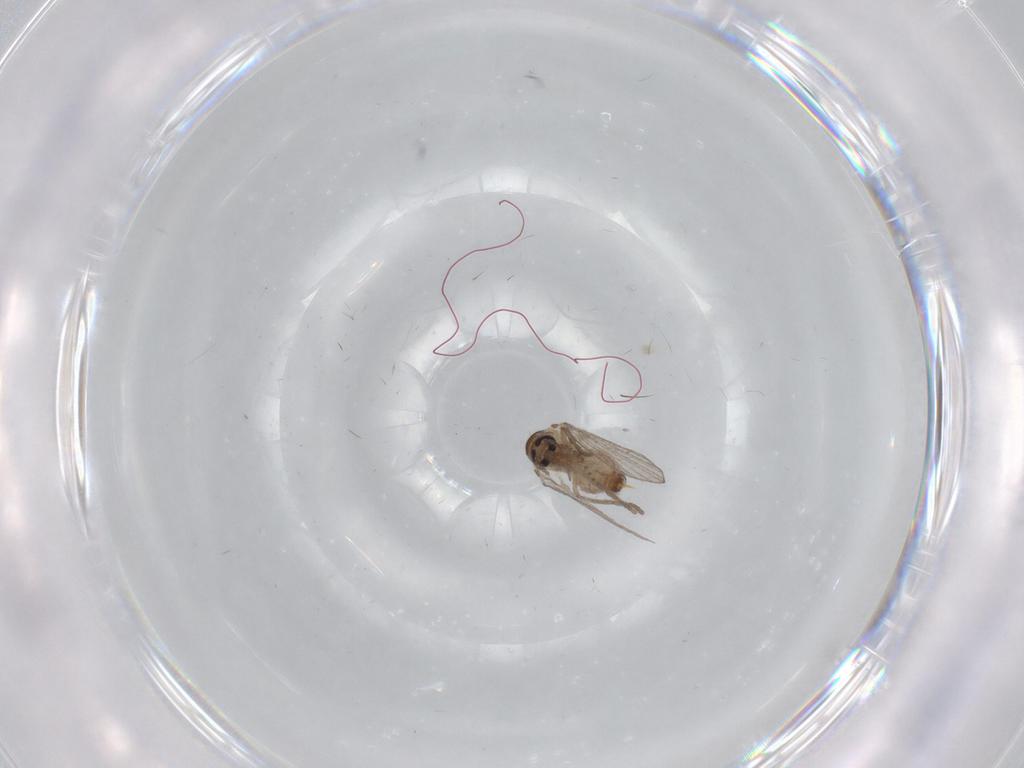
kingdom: Animalia
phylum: Arthropoda
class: Insecta
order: Diptera
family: Psychodidae
